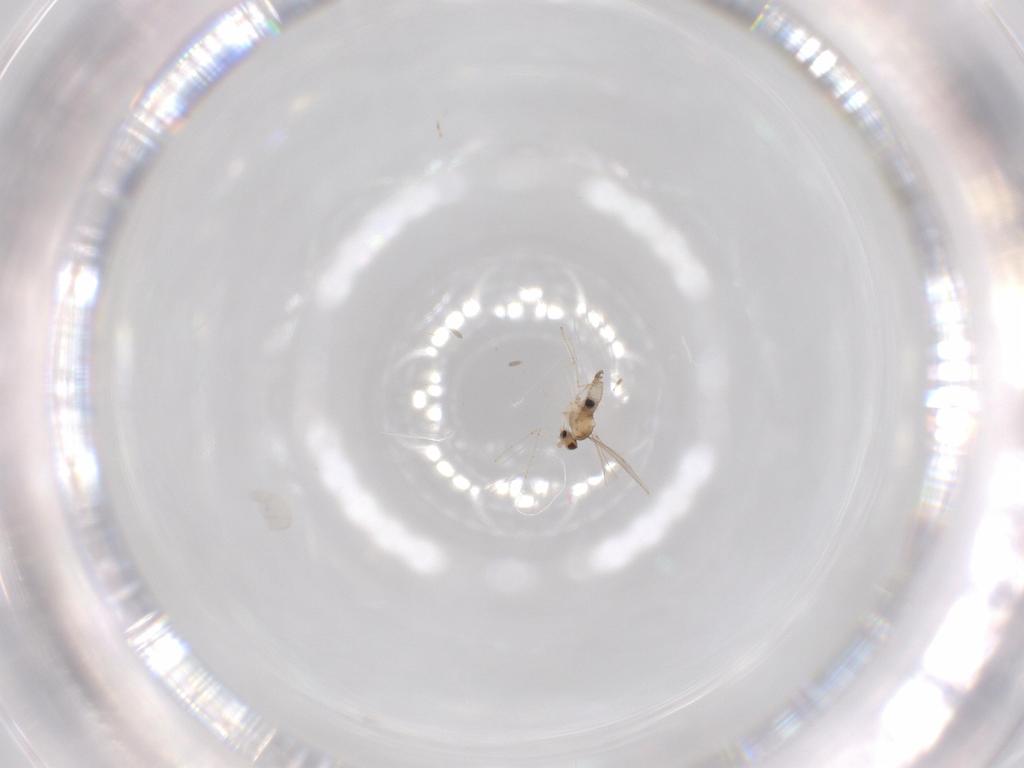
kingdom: Animalia
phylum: Arthropoda
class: Insecta
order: Diptera
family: Cecidomyiidae
